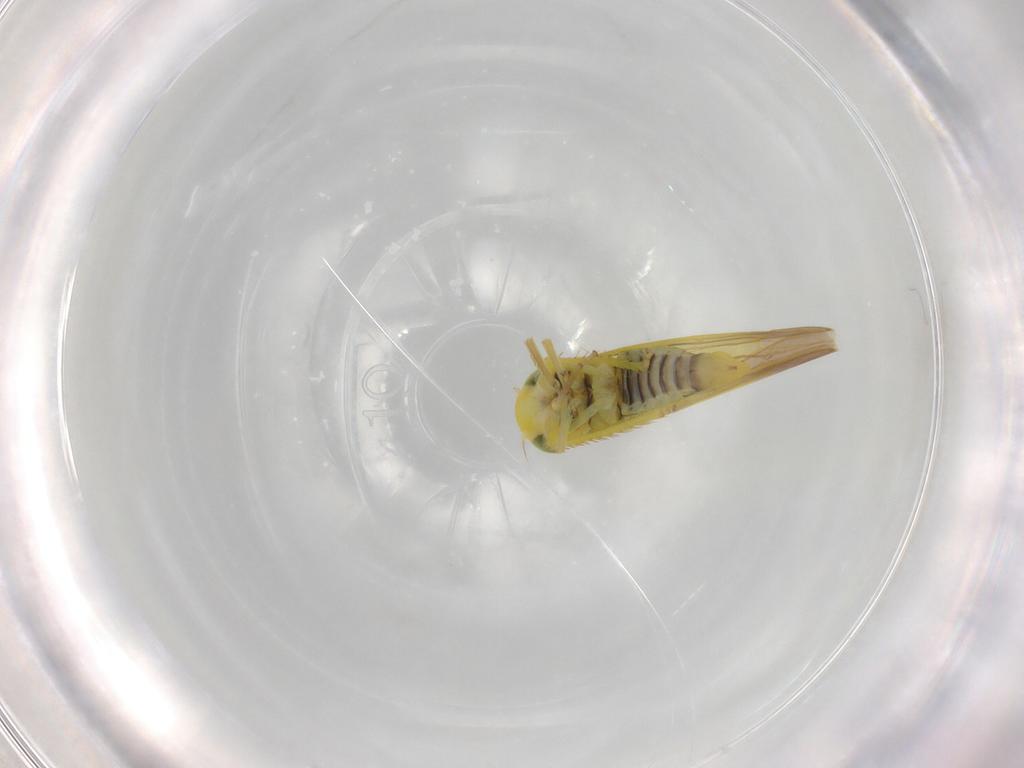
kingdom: Animalia
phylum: Arthropoda
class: Insecta
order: Hemiptera
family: Cicadellidae
